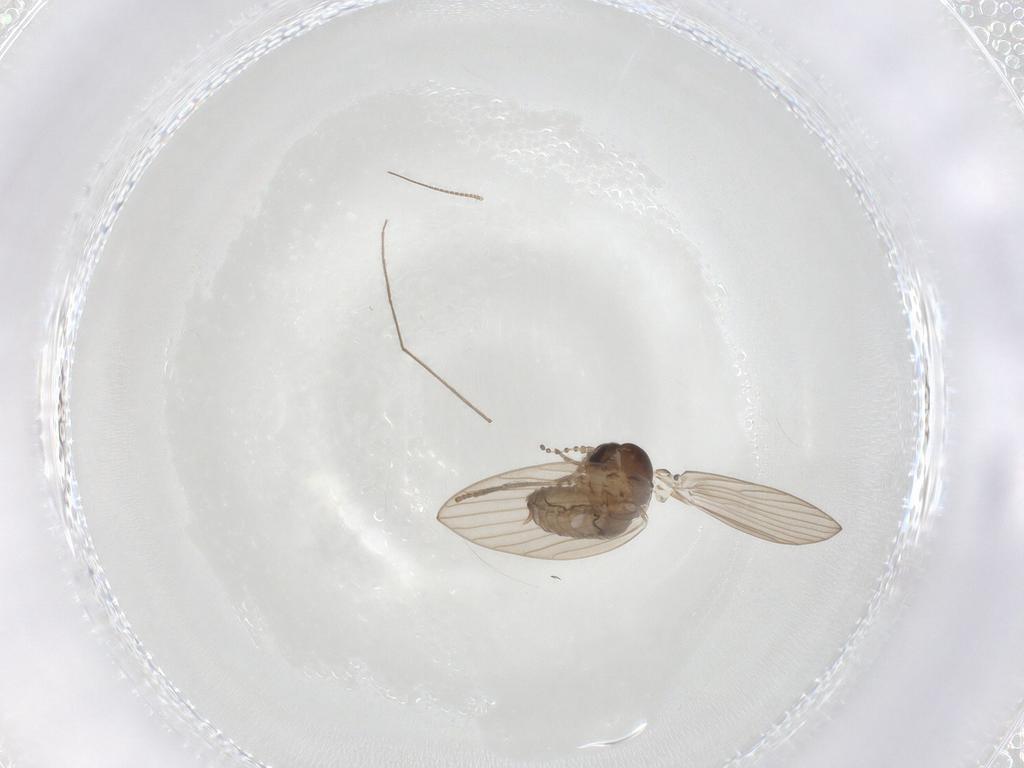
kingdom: Animalia
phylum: Arthropoda
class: Insecta
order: Diptera
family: Psychodidae
